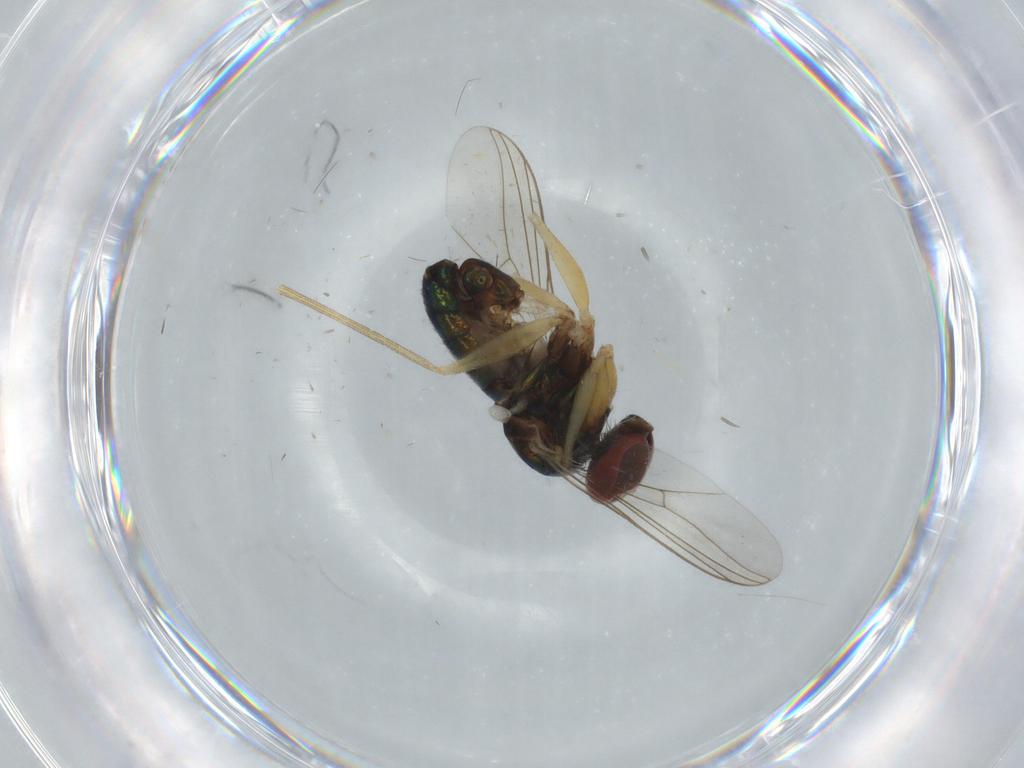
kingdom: Animalia
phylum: Arthropoda
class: Insecta
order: Diptera
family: Dolichopodidae
